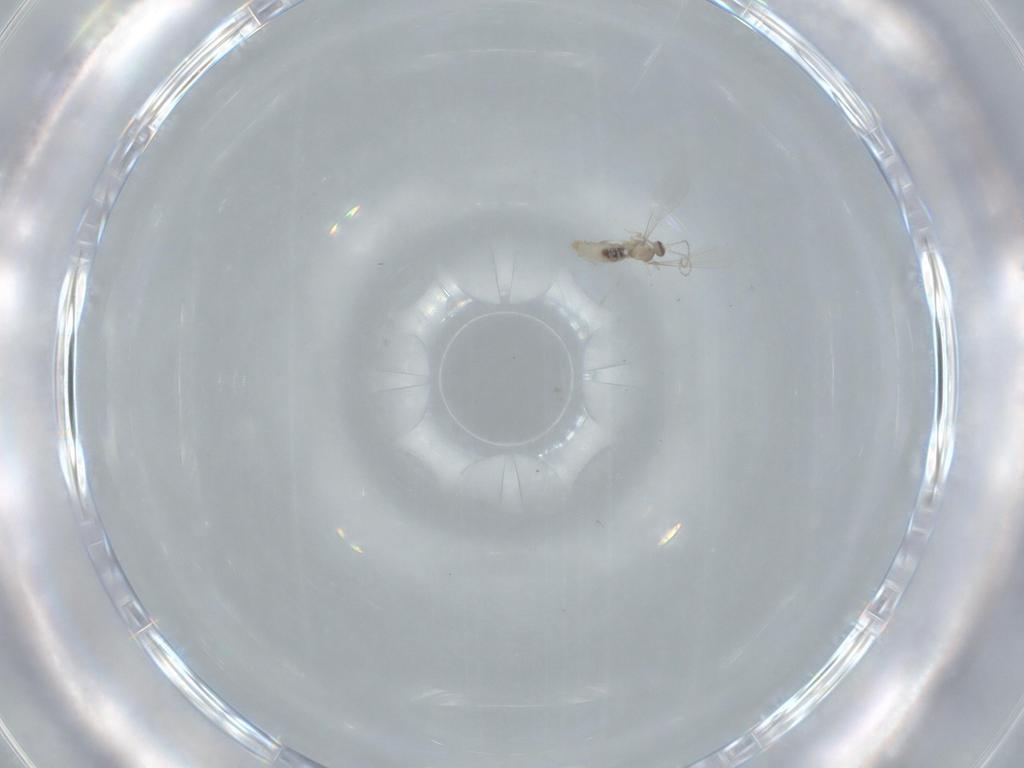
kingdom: Animalia
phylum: Arthropoda
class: Insecta
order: Diptera
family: Cecidomyiidae
